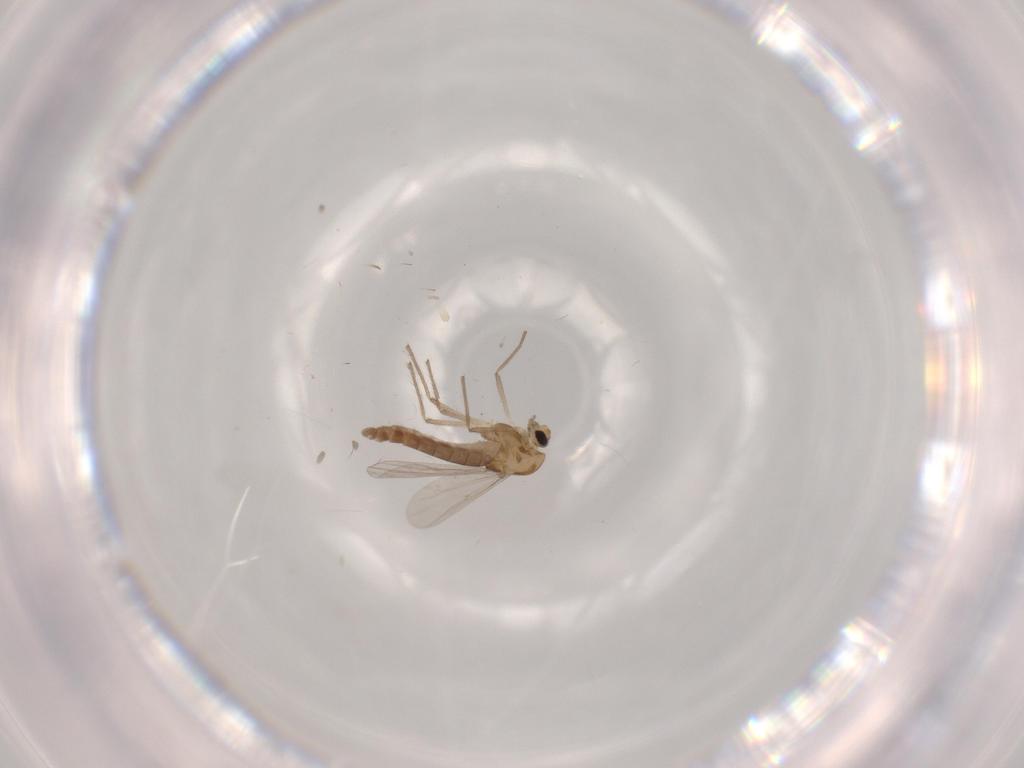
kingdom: Animalia
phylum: Arthropoda
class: Insecta
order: Diptera
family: Chironomidae
